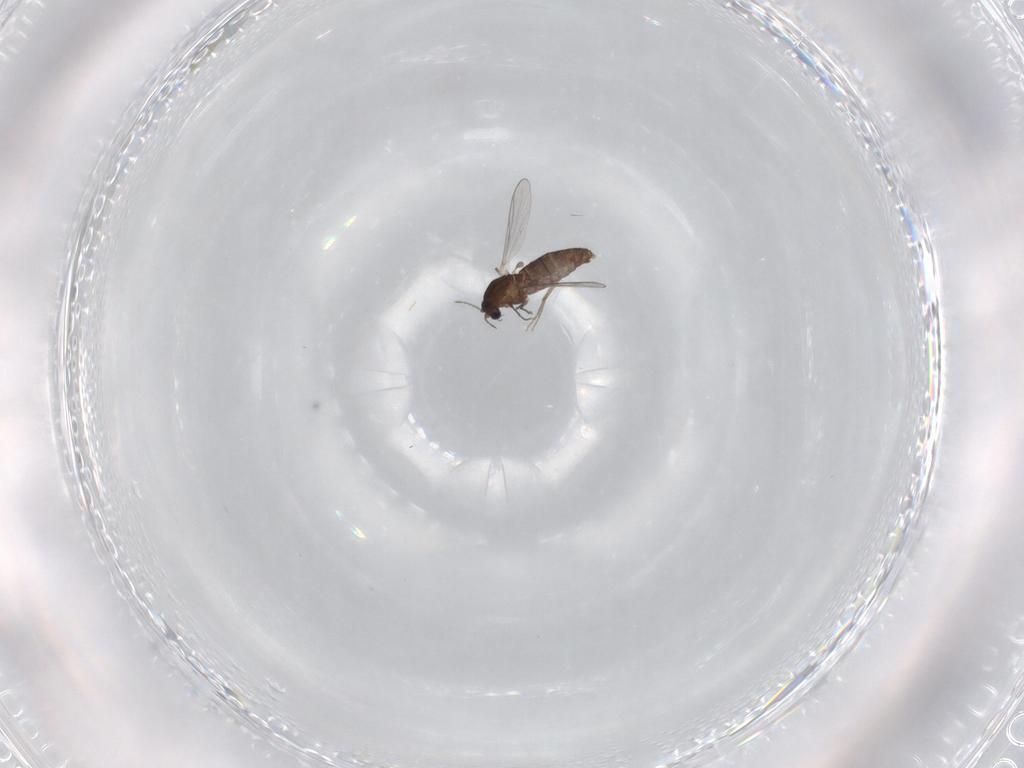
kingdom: Animalia
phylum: Arthropoda
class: Insecta
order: Diptera
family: Chironomidae
